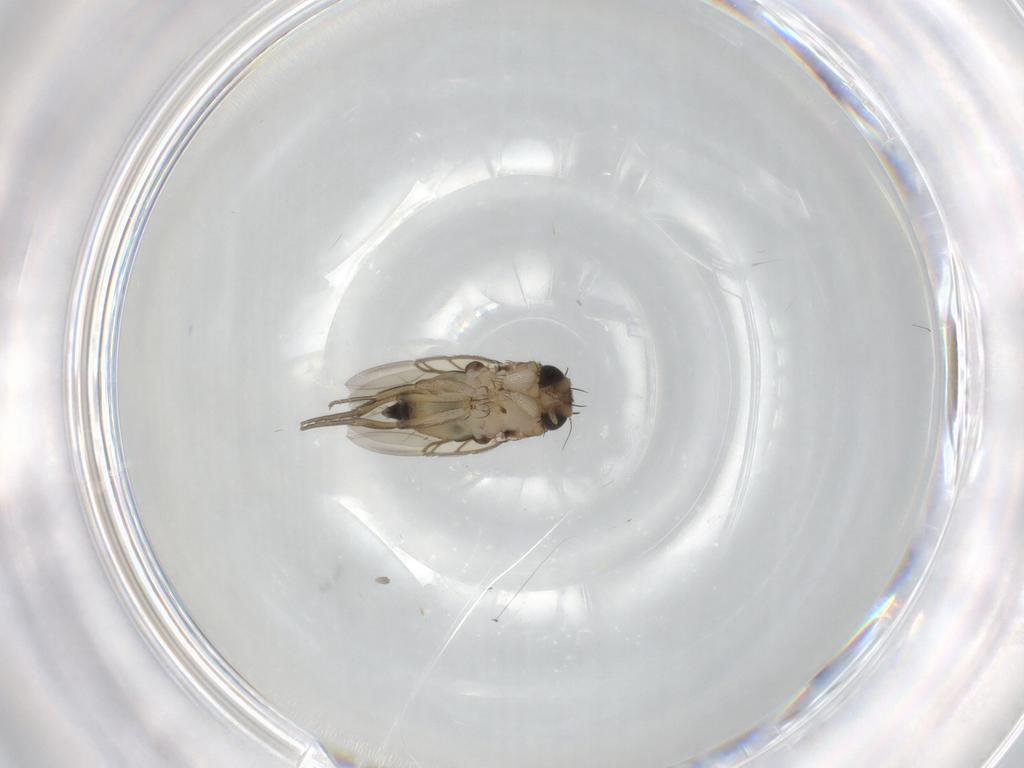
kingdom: Animalia
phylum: Arthropoda
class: Insecta
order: Diptera
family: Phoridae
